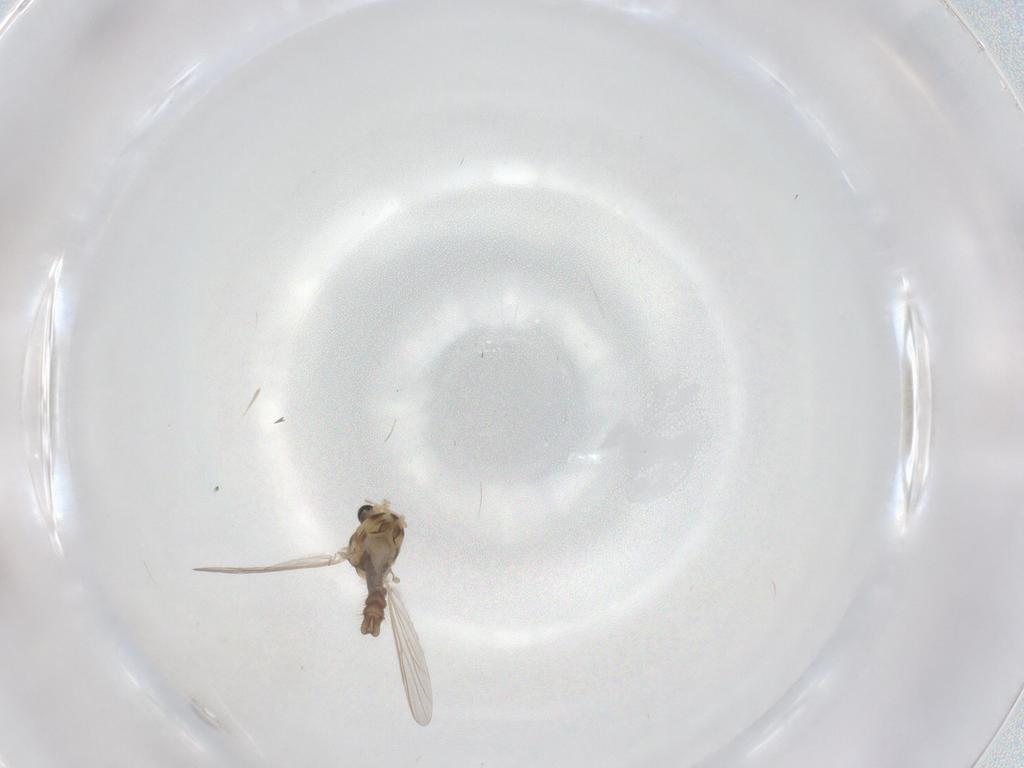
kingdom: Animalia
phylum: Arthropoda
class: Insecta
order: Diptera
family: Chironomidae
